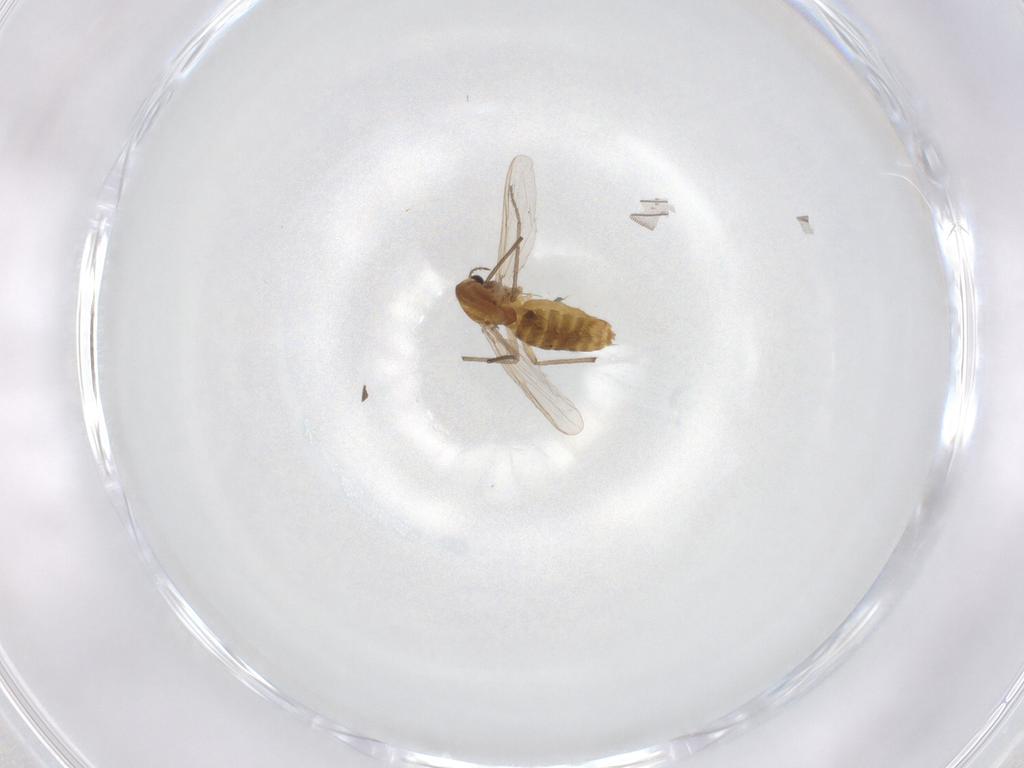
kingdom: Animalia
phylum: Arthropoda
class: Insecta
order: Diptera
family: Chironomidae
